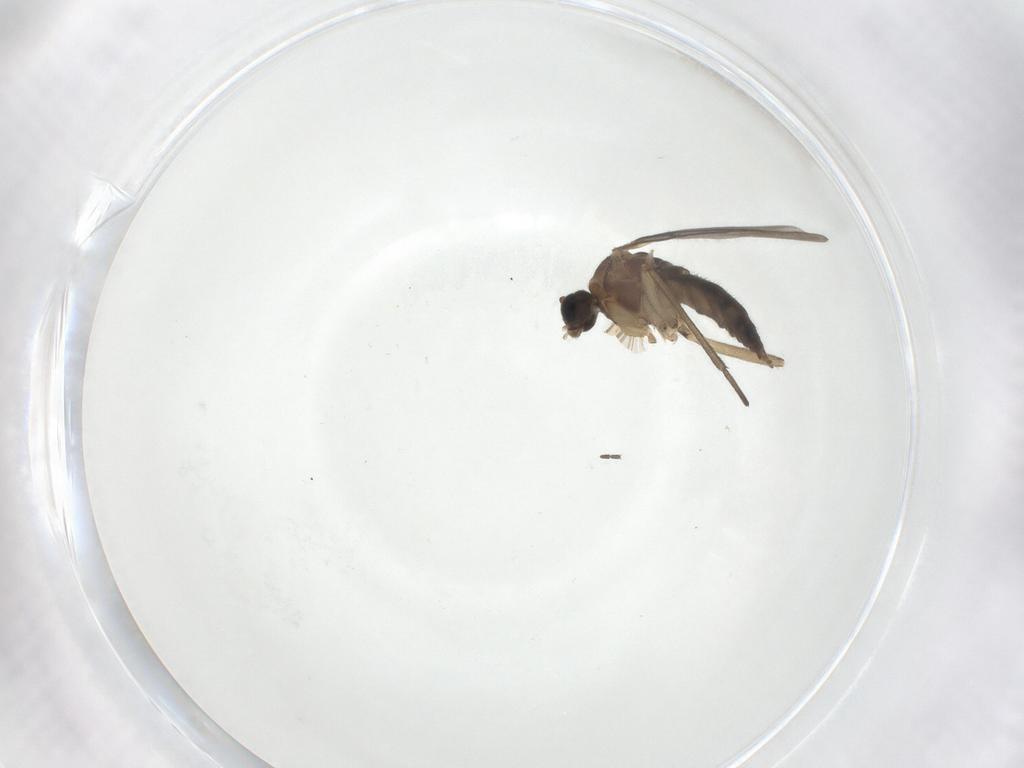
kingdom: Animalia
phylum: Arthropoda
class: Insecta
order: Diptera
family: Sciaridae
